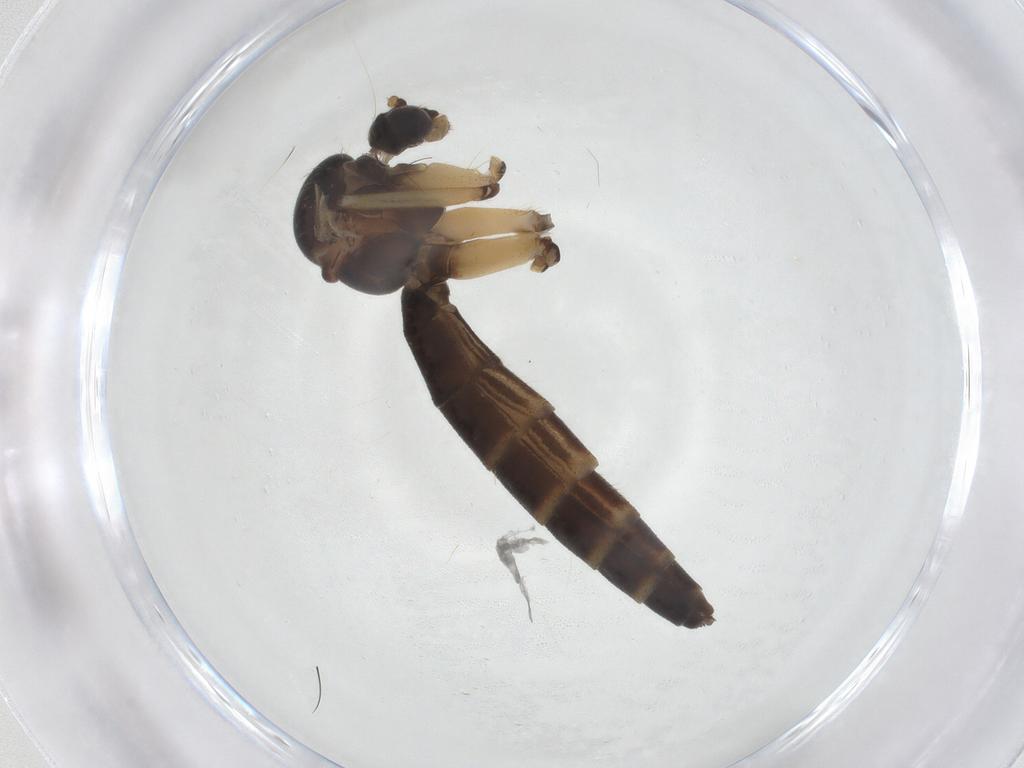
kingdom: Animalia
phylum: Arthropoda
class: Insecta
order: Diptera
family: Mycetophilidae
